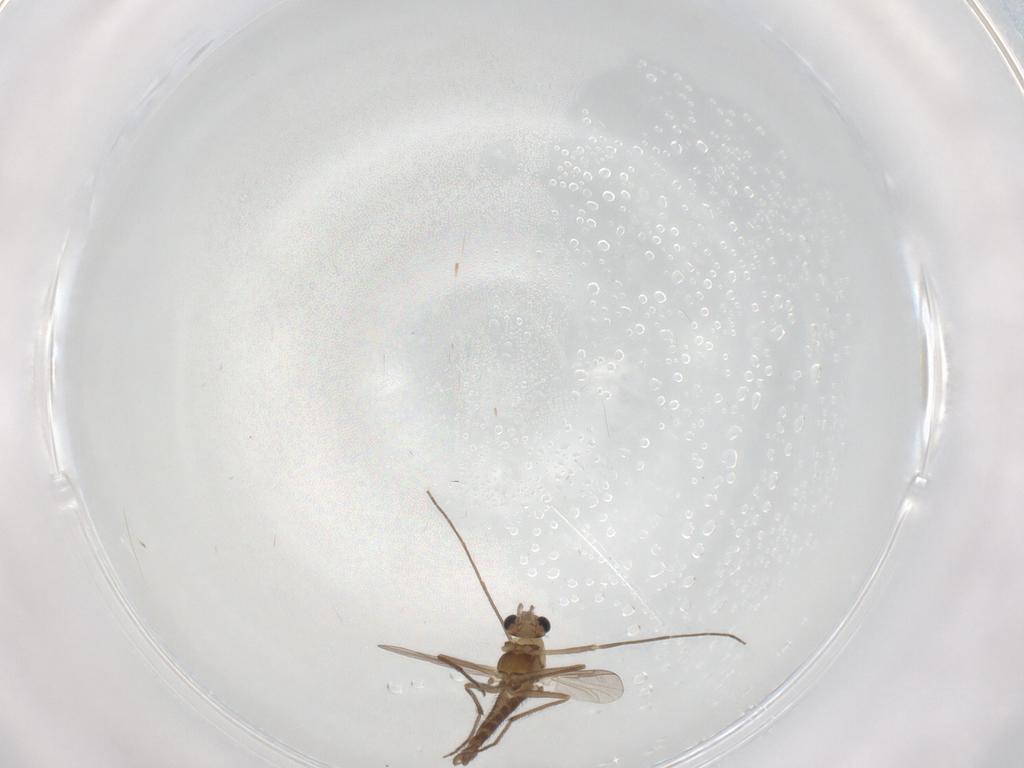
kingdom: Animalia
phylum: Arthropoda
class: Insecta
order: Diptera
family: Chironomidae
